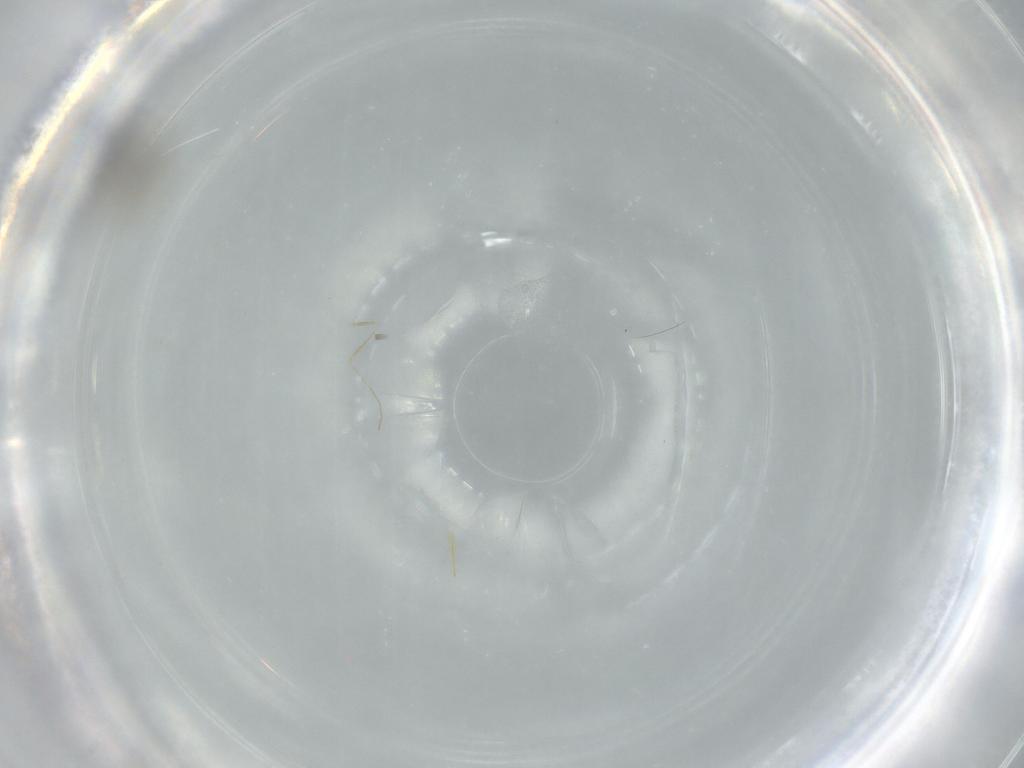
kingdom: Animalia
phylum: Arthropoda
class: Insecta
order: Diptera
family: Cecidomyiidae
